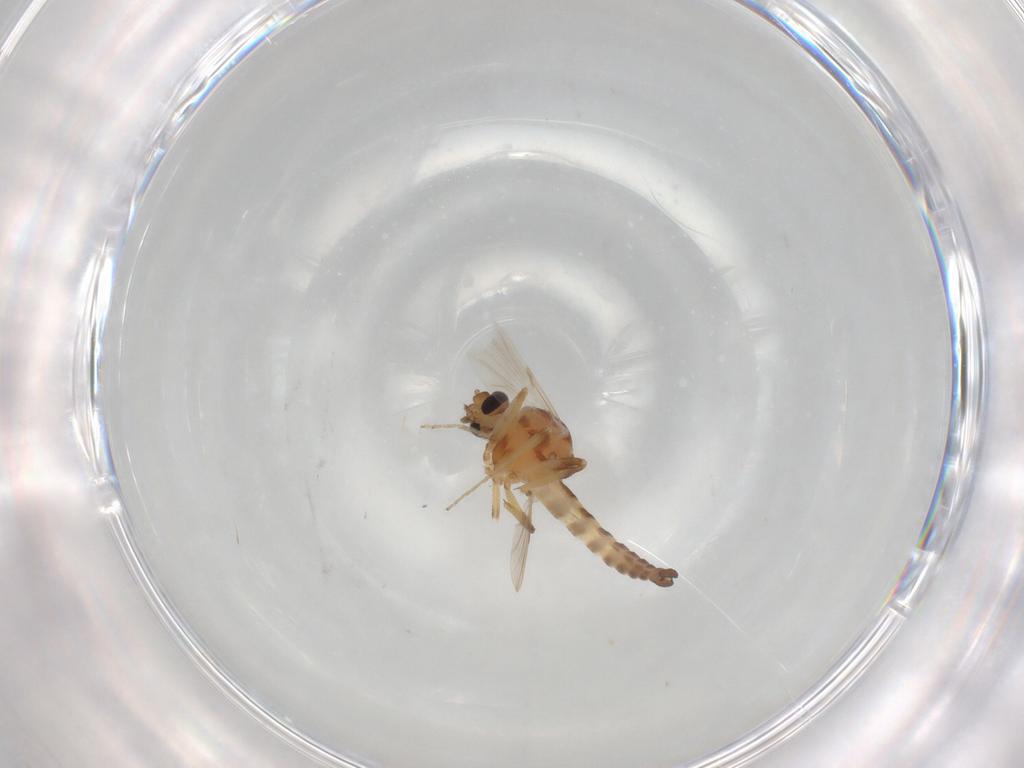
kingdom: Animalia
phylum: Arthropoda
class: Insecta
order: Diptera
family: Ceratopogonidae
